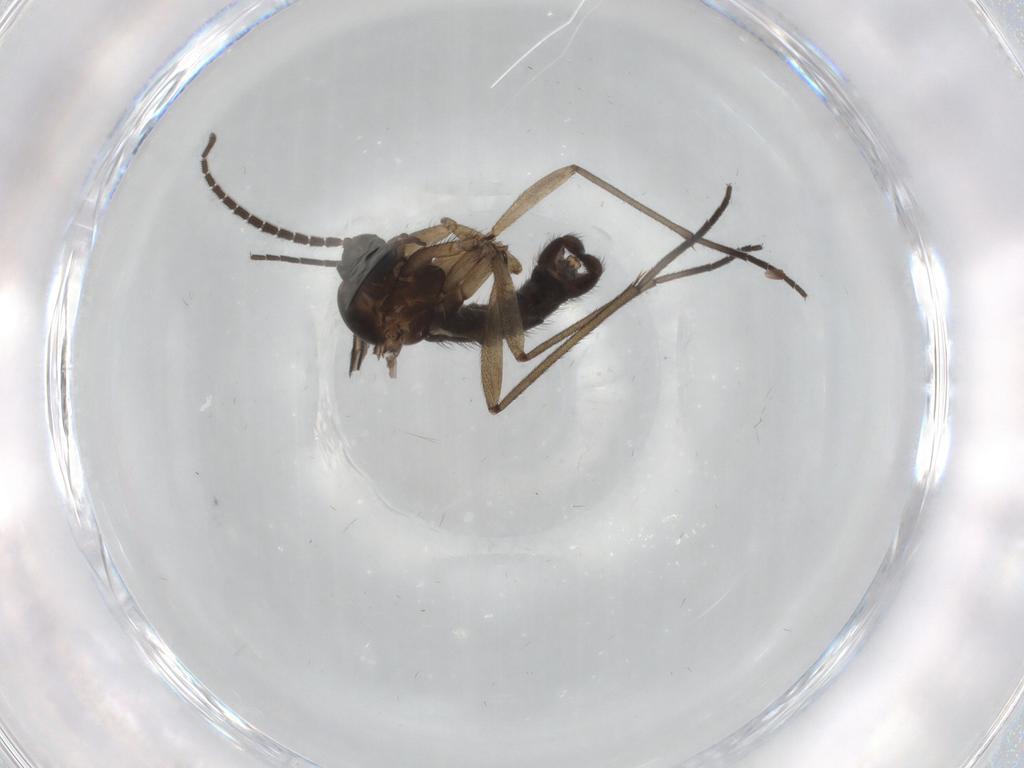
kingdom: Animalia
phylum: Arthropoda
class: Insecta
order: Diptera
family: Sciaridae
